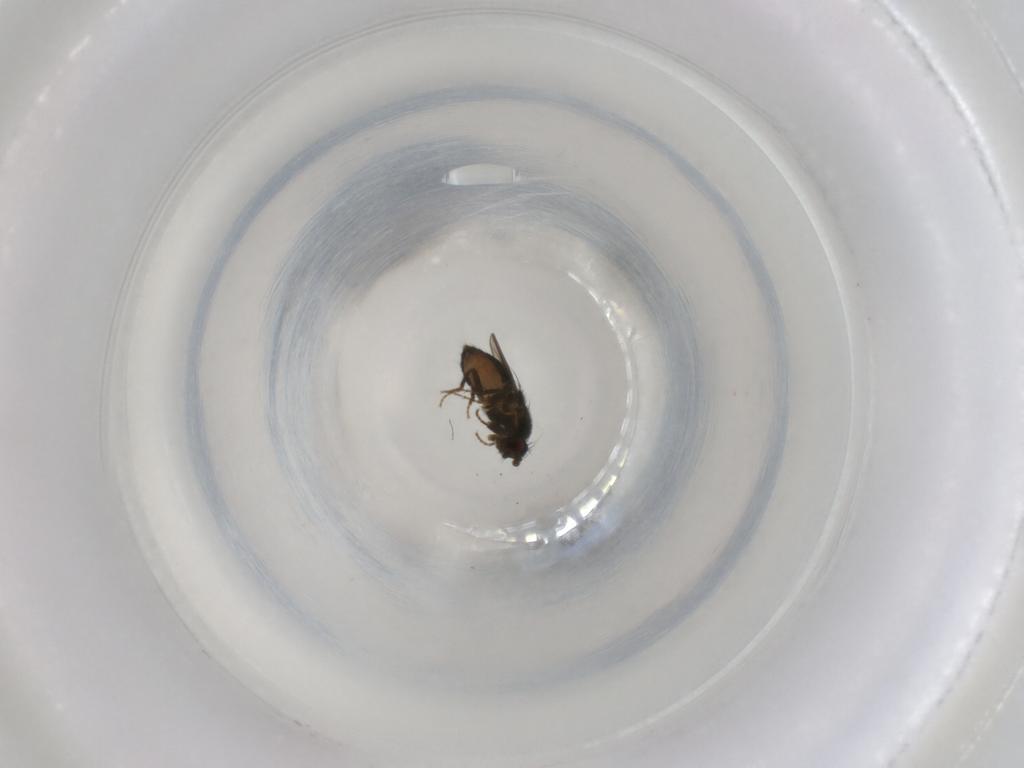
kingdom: Animalia
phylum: Arthropoda
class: Insecta
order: Diptera
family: Sphaeroceridae
